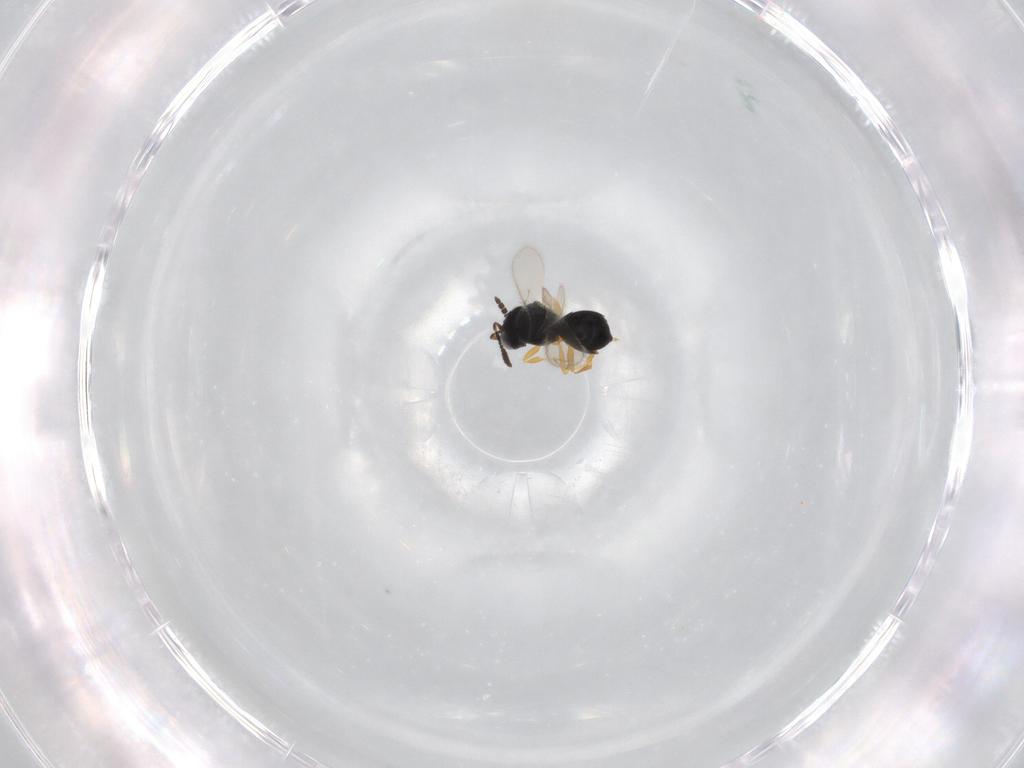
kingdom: Animalia
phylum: Arthropoda
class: Insecta
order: Hymenoptera
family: Scelionidae
